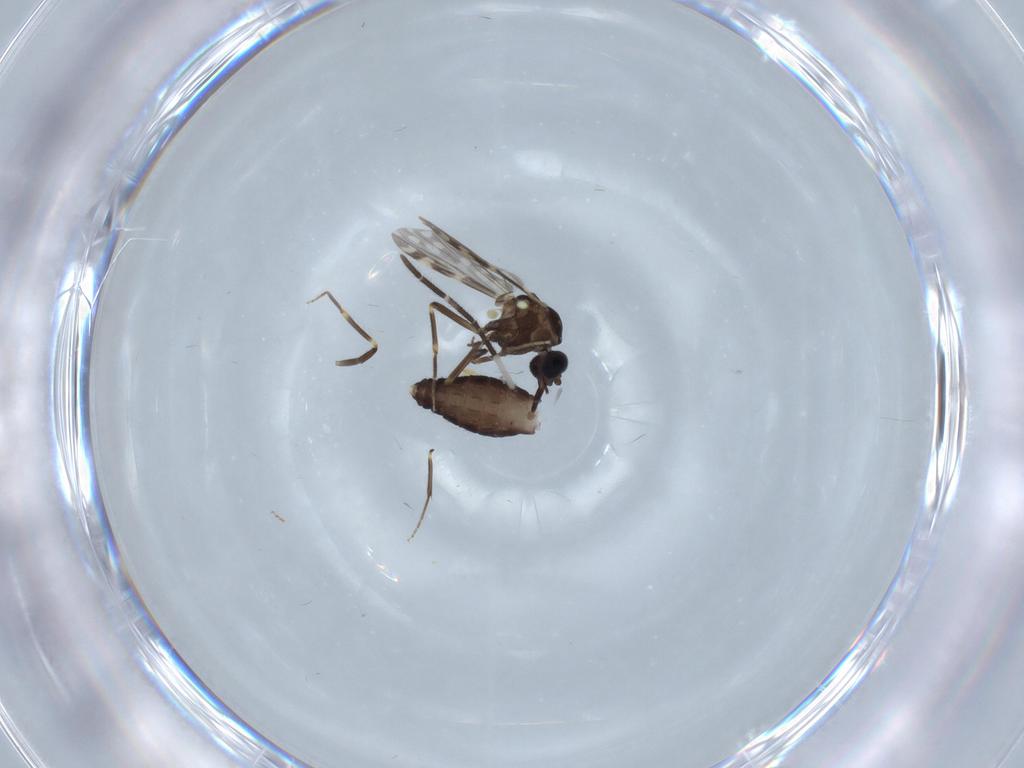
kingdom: Animalia
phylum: Arthropoda
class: Insecta
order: Diptera
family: Ceratopogonidae
